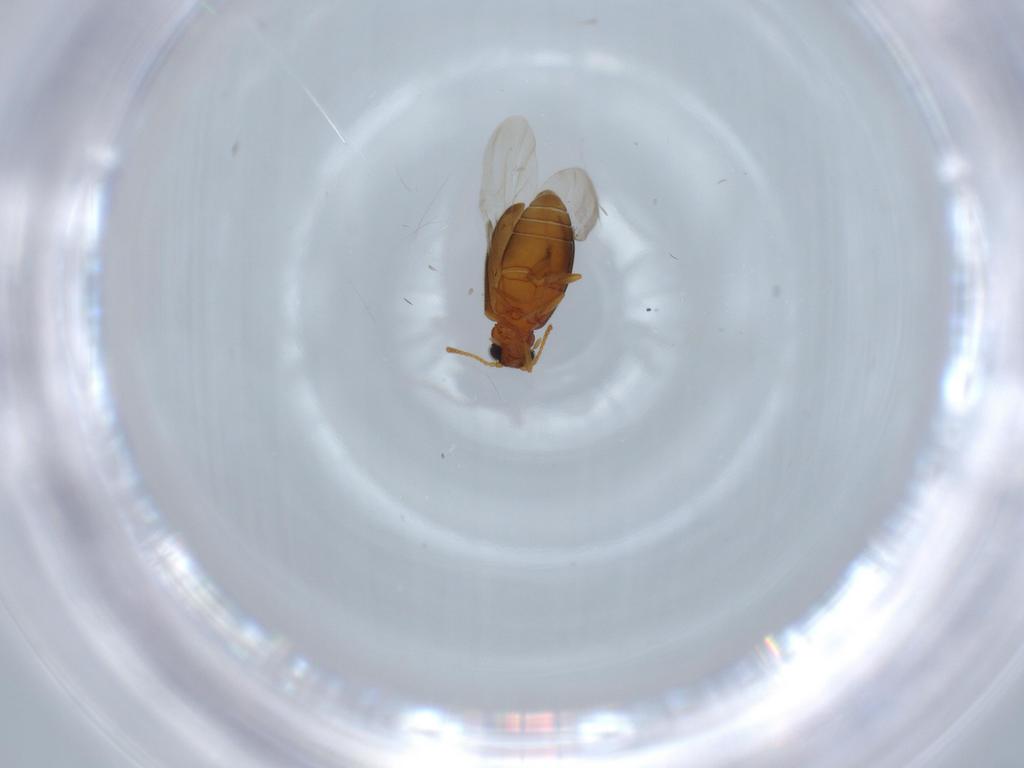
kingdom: Animalia
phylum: Arthropoda
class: Insecta
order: Coleoptera
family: Aderidae
